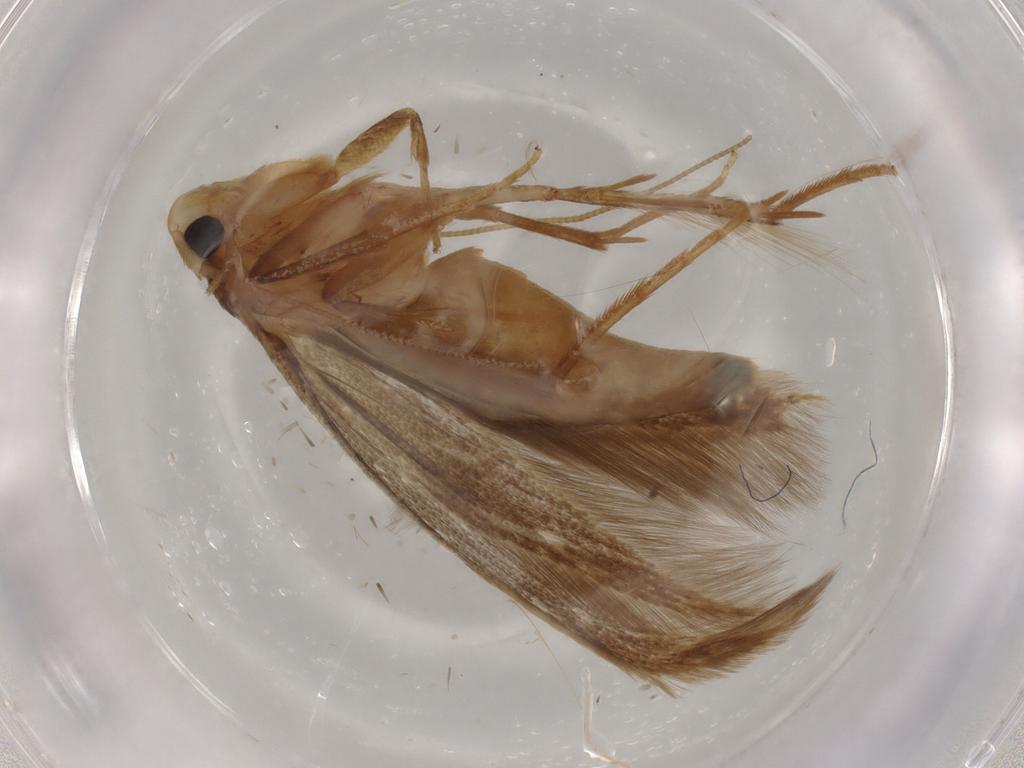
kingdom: Animalia
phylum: Arthropoda
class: Insecta
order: Lepidoptera
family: Tineidae
